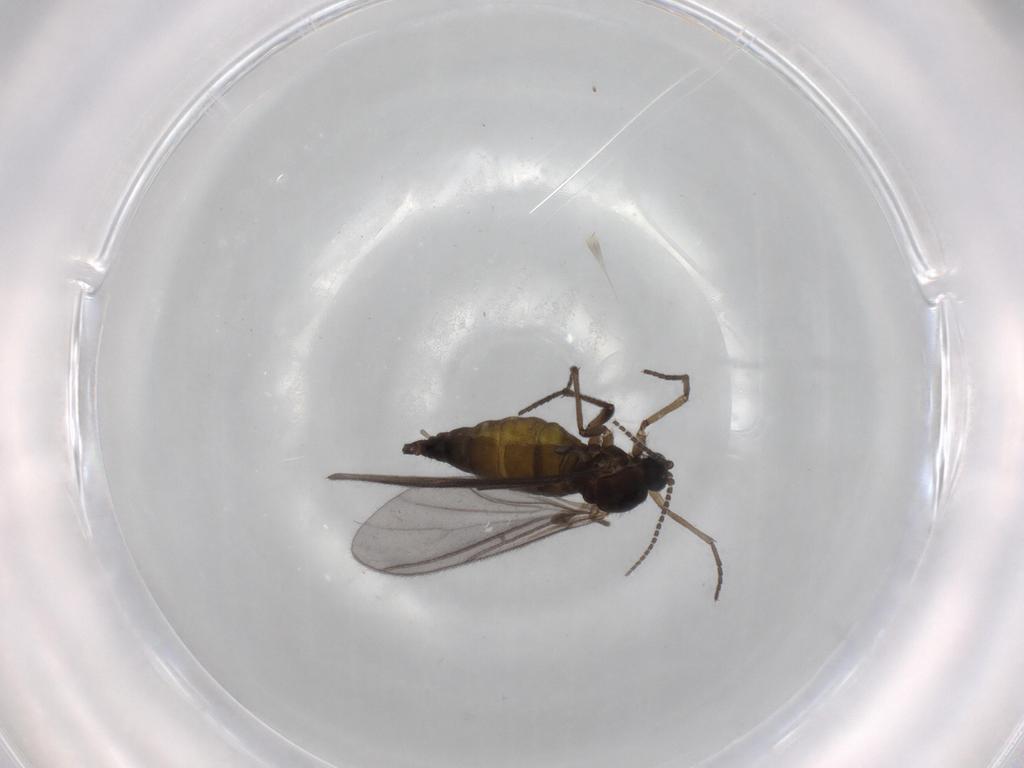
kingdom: Animalia
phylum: Arthropoda
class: Insecta
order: Diptera
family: Sciaridae
